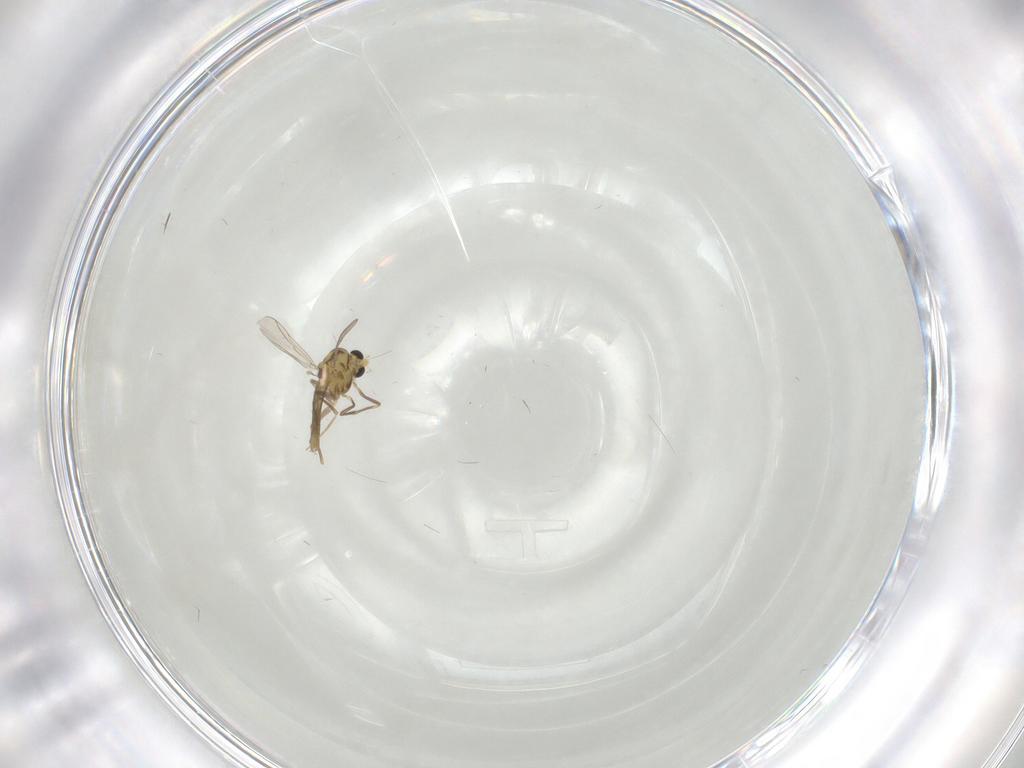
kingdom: Animalia
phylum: Arthropoda
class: Insecta
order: Diptera
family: Chironomidae
